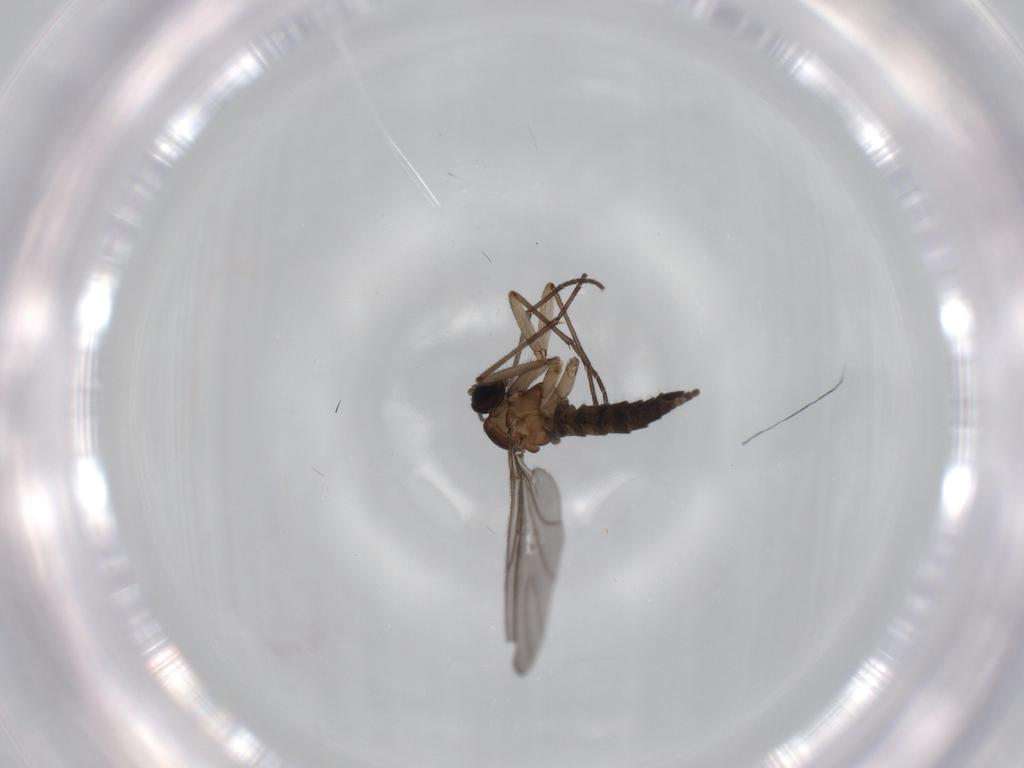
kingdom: Animalia
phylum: Arthropoda
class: Insecta
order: Diptera
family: Sciaridae
